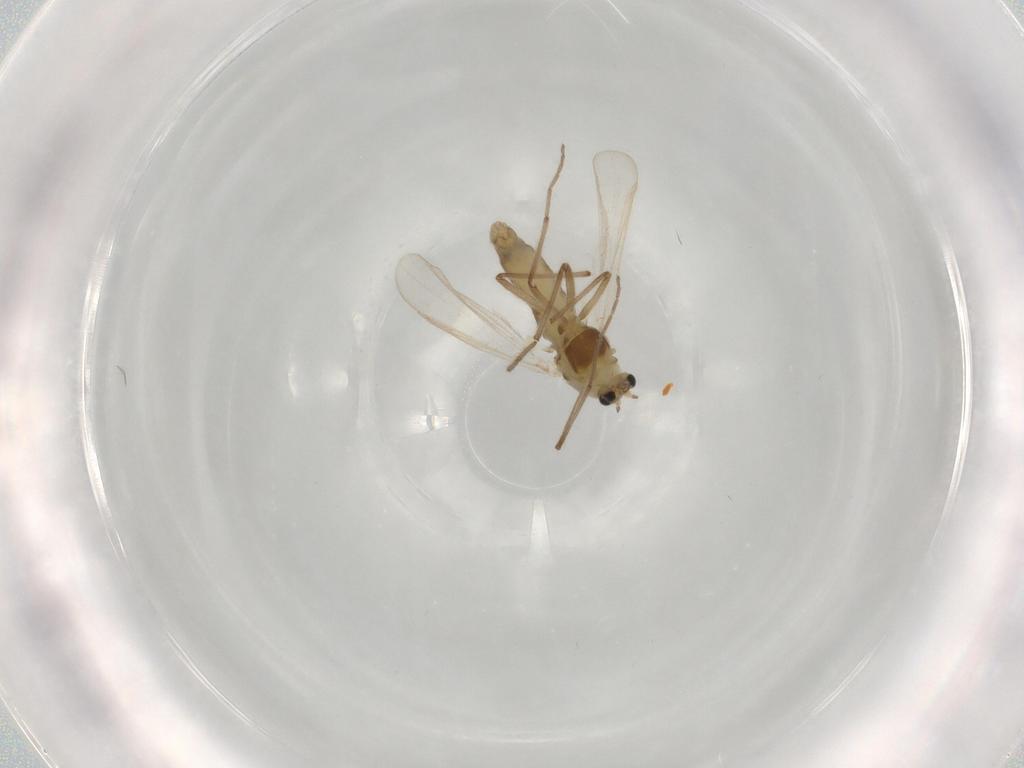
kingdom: Animalia
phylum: Arthropoda
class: Insecta
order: Diptera
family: Chironomidae
